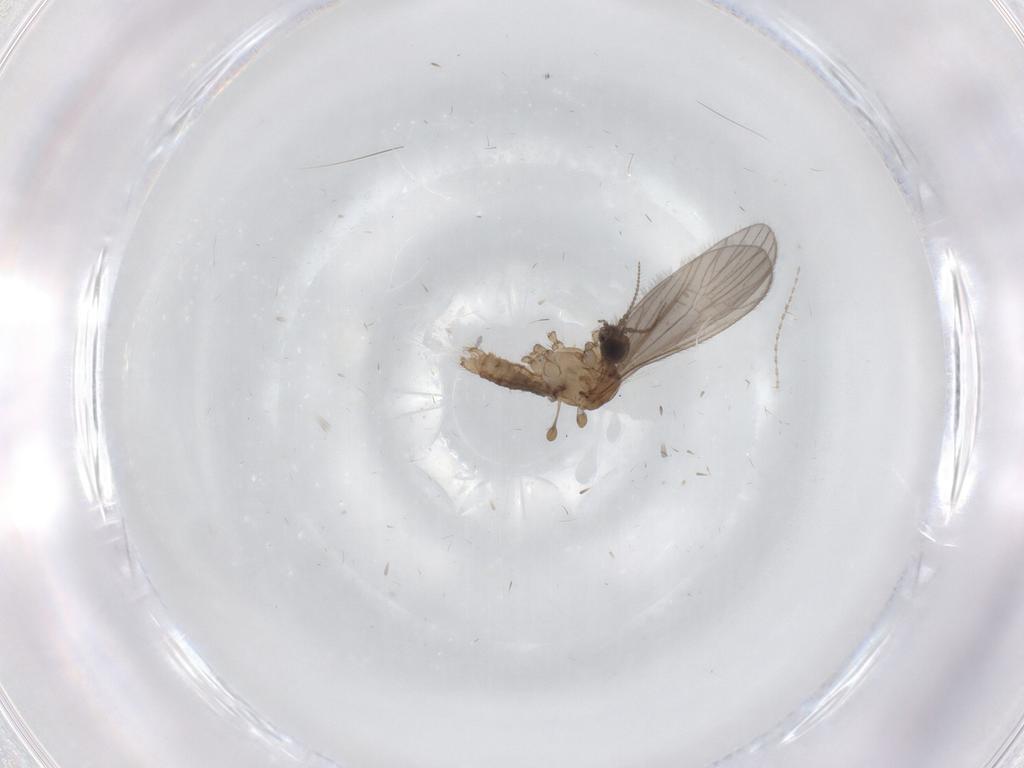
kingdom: Animalia
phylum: Arthropoda
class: Insecta
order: Diptera
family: Limoniidae
